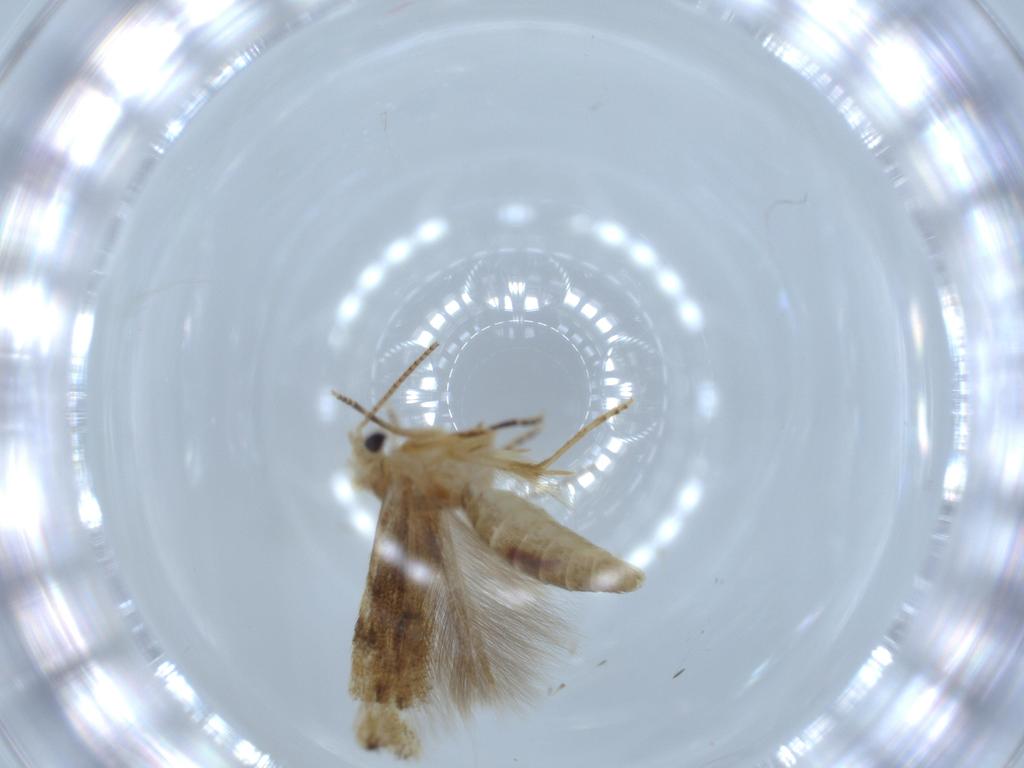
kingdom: Animalia
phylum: Arthropoda
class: Insecta
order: Lepidoptera
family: Bucculatricidae
